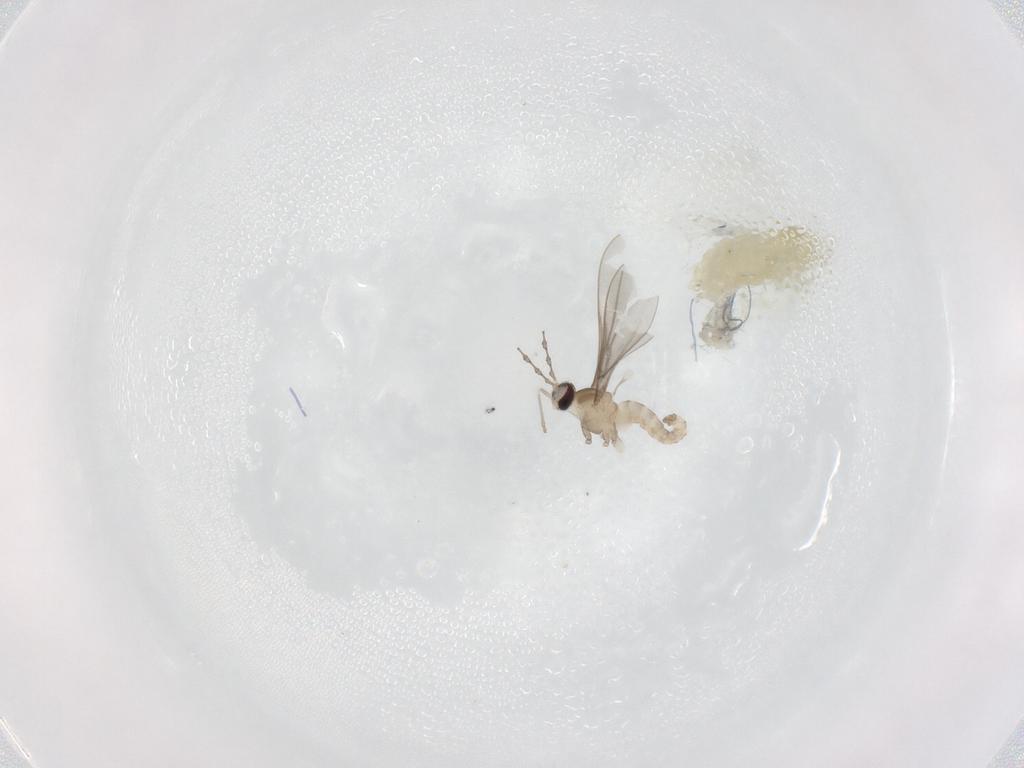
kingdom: Animalia
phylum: Arthropoda
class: Insecta
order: Diptera
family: Cecidomyiidae
